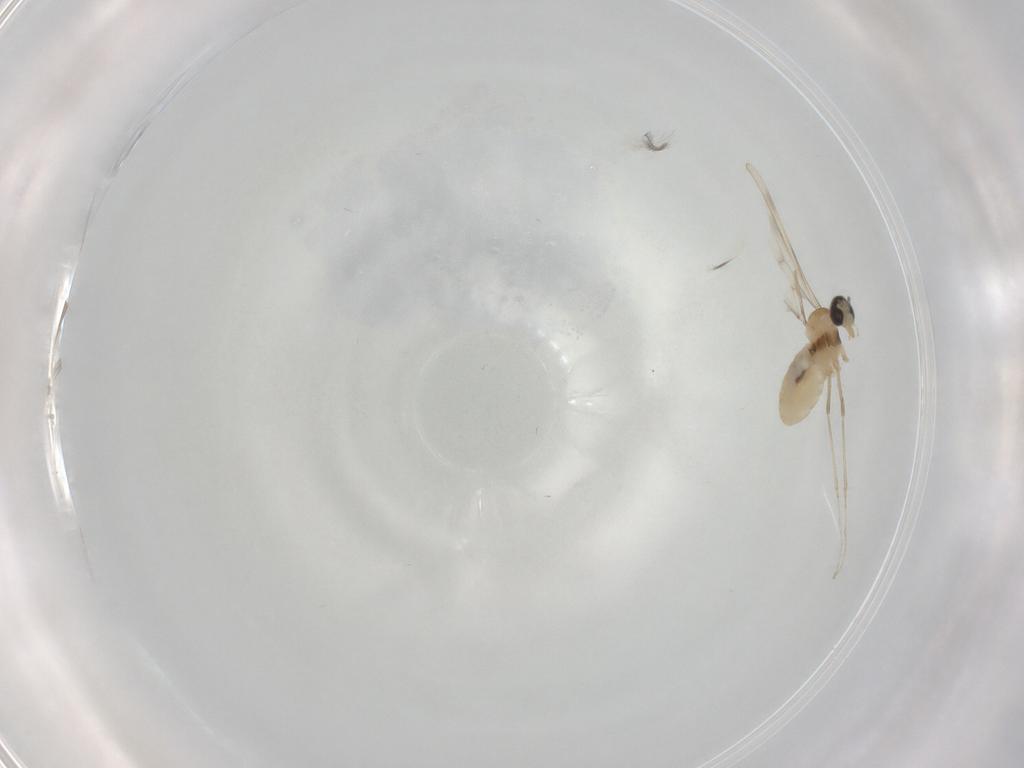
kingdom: Animalia
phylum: Arthropoda
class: Insecta
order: Diptera
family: Cecidomyiidae
